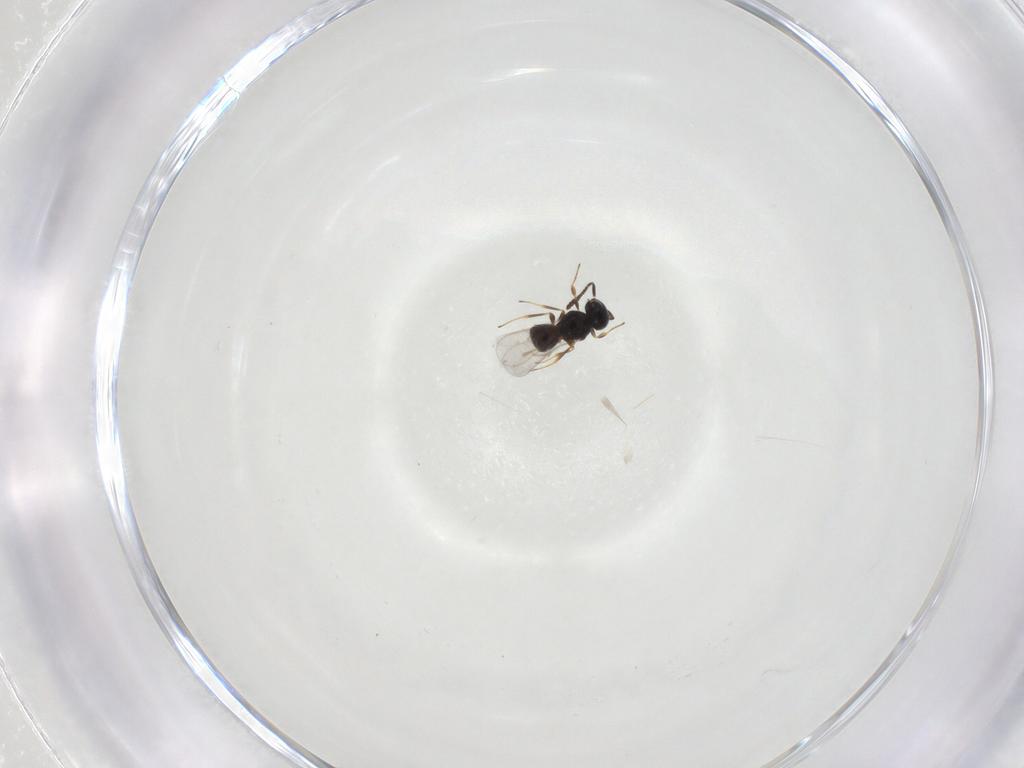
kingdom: Animalia
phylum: Arthropoda
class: Insecta
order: Hymenoptera
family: Scelionidae
